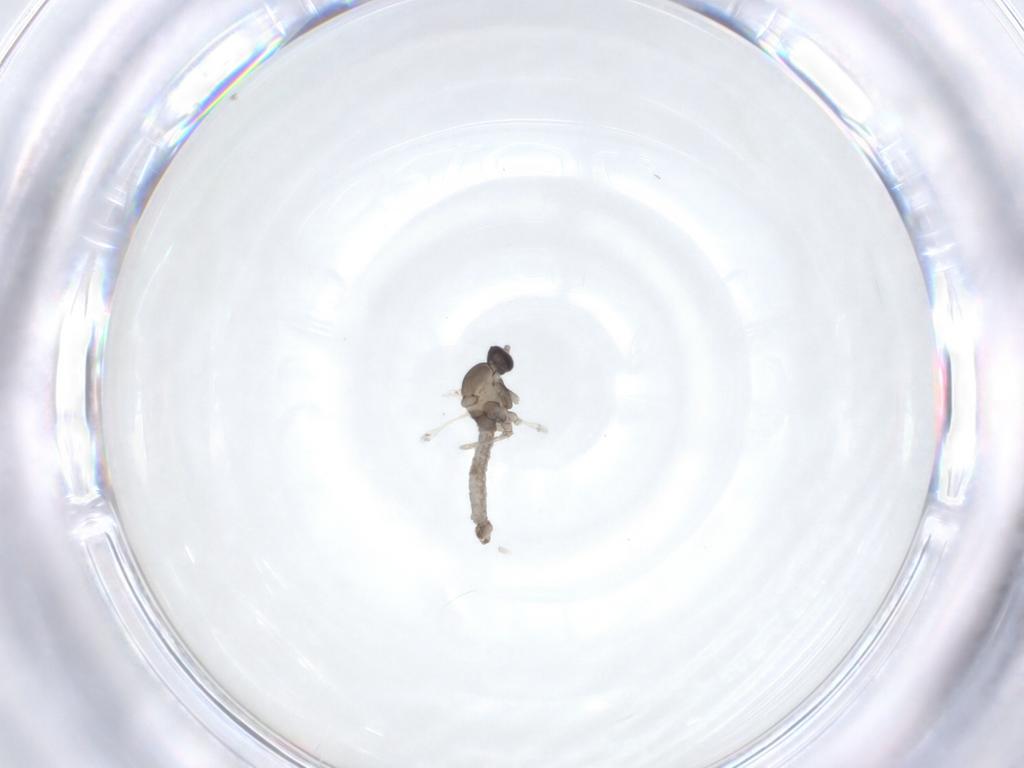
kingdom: Animalia
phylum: Arthropoda
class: Insecta
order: Diptera
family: Cecidomyiidae
